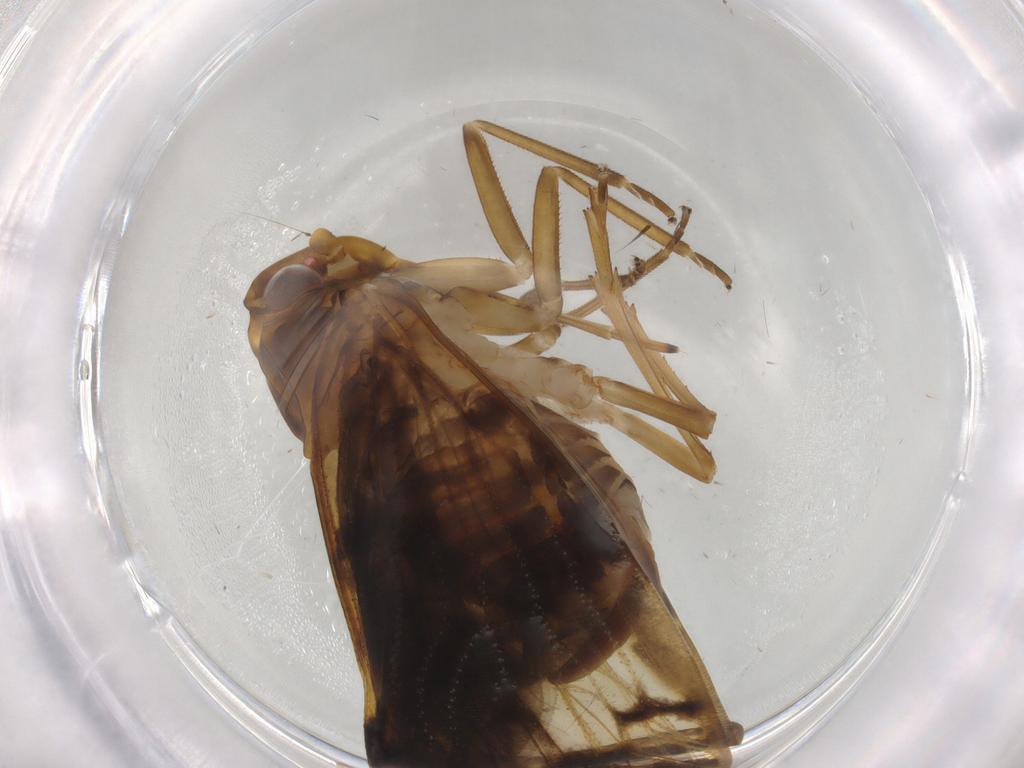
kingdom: Animalia
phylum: Arthropoda
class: Insecta
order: Hemiptera
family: Cixiidae
